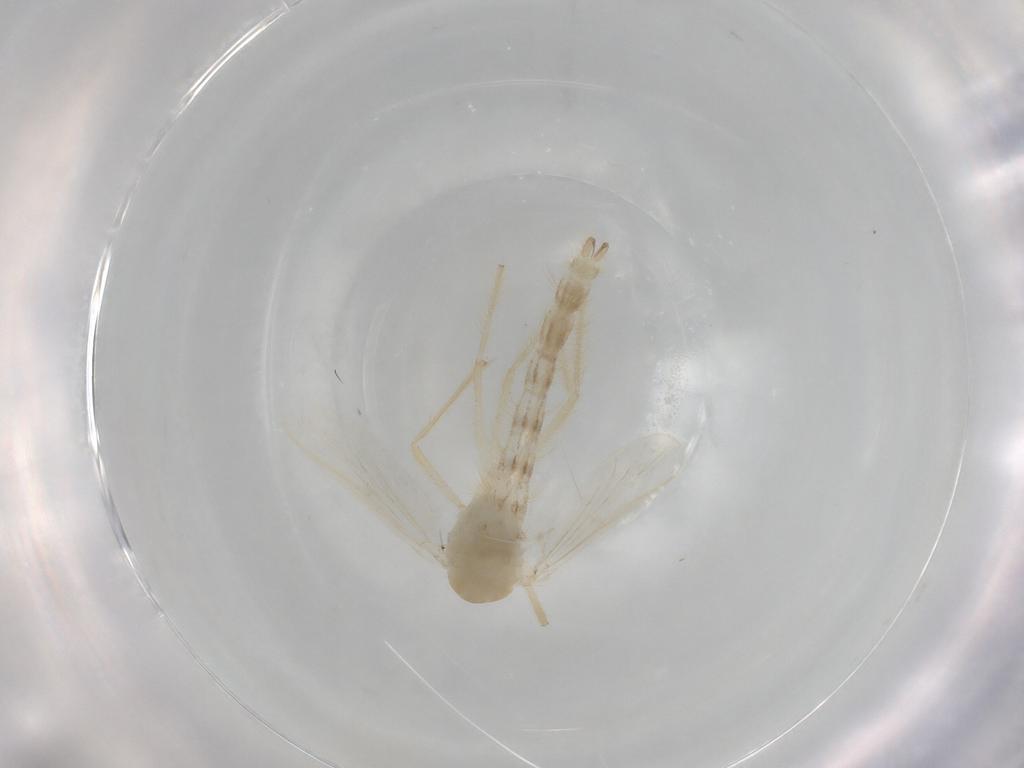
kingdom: Animalia
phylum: Arthropoda
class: Insecta
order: Diptera
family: Chironomidae
